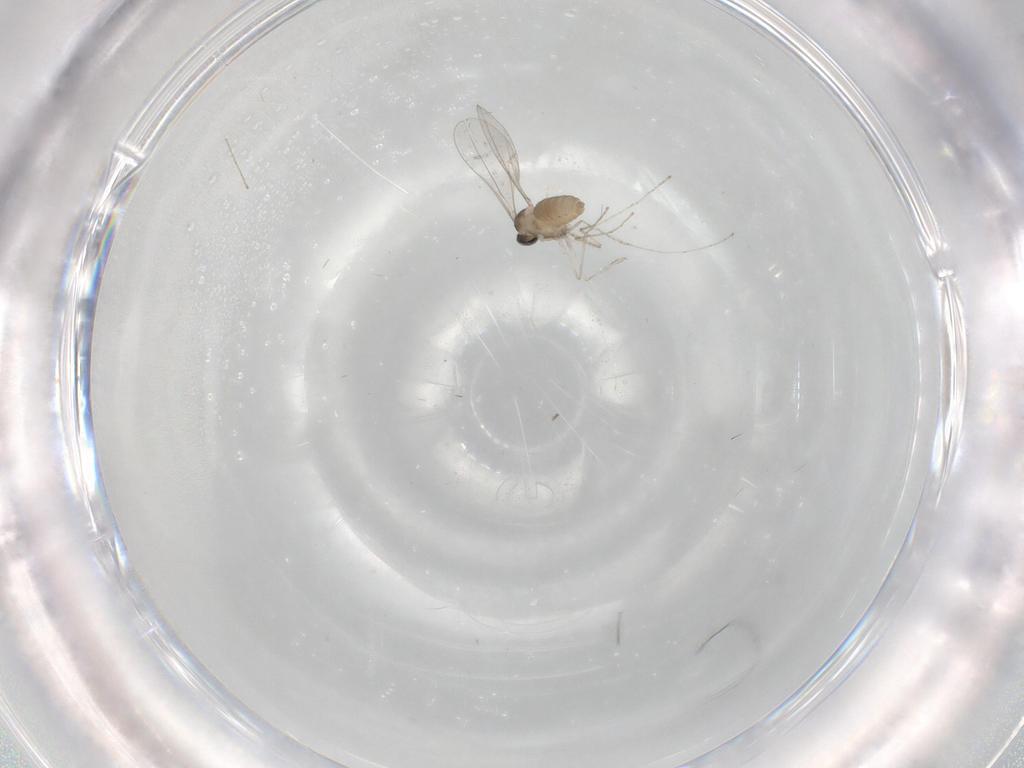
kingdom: Animalia
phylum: Arthropoda
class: Insecta
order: Diptera
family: Cecidomyiidae
